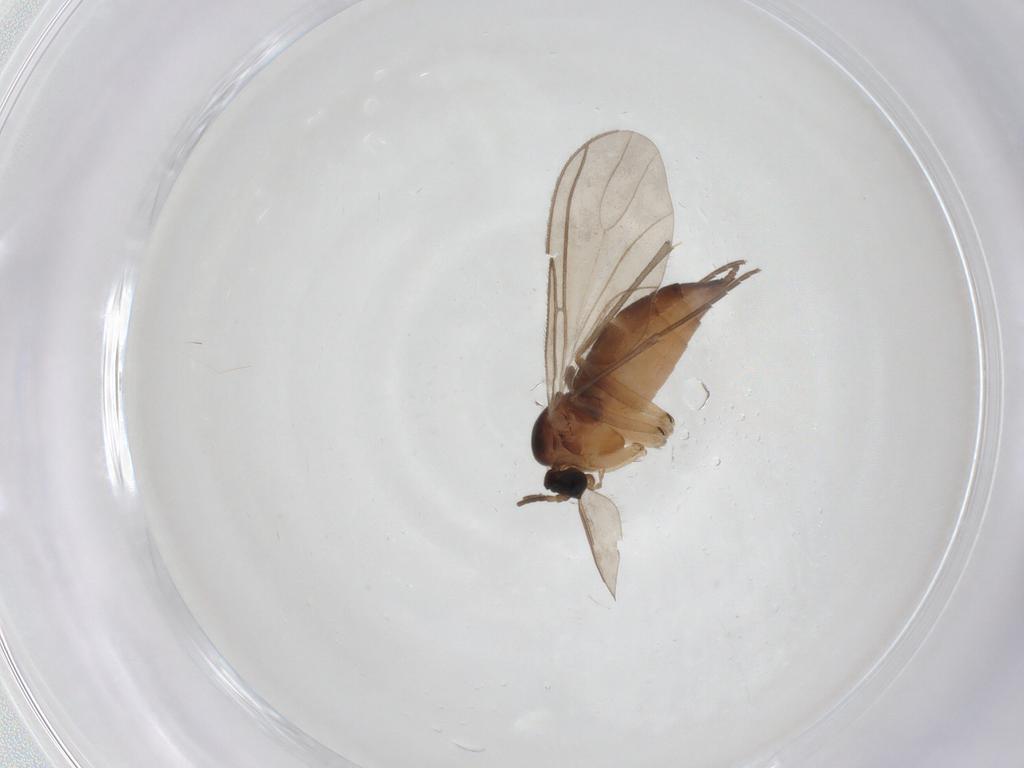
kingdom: Animalia
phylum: Arthropoda
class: Insecta
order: Diptera
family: Sciaridae
